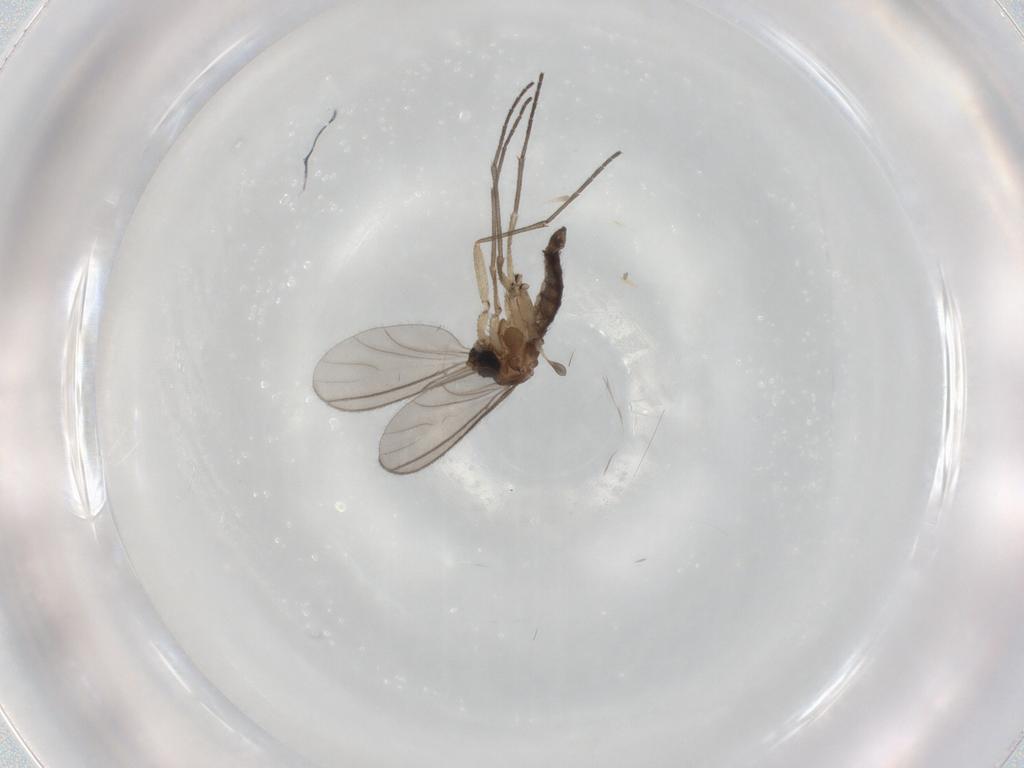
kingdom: Animalia
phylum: Arthropoda
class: Insecta
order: Diptera
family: Sciaridae
